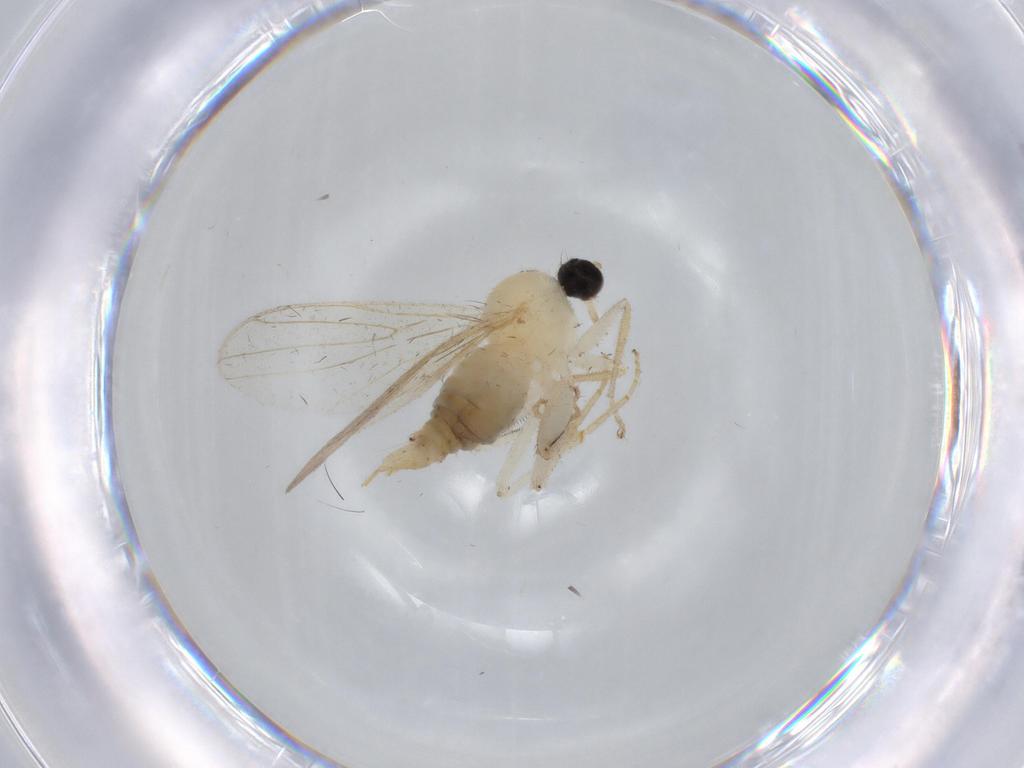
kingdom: Animalia
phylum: Arthropoda
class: Insecta
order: Diptera
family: Hybotidae
